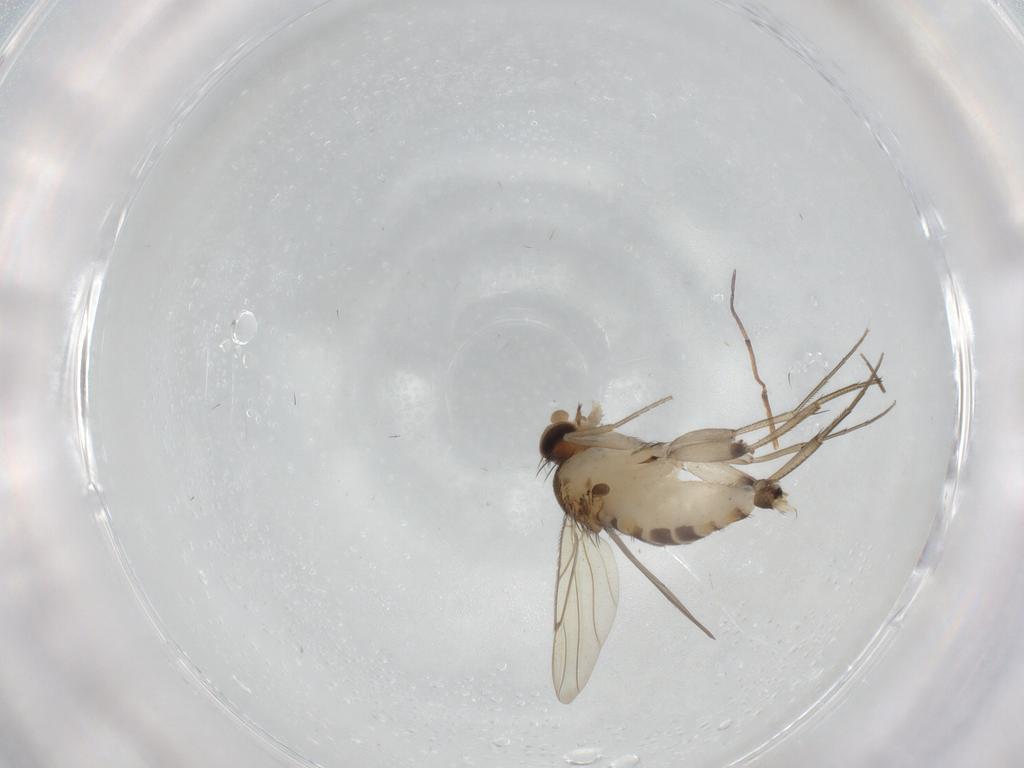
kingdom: Animalia
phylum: Arthropoda
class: Insecta
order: Diptera
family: Phoridae
